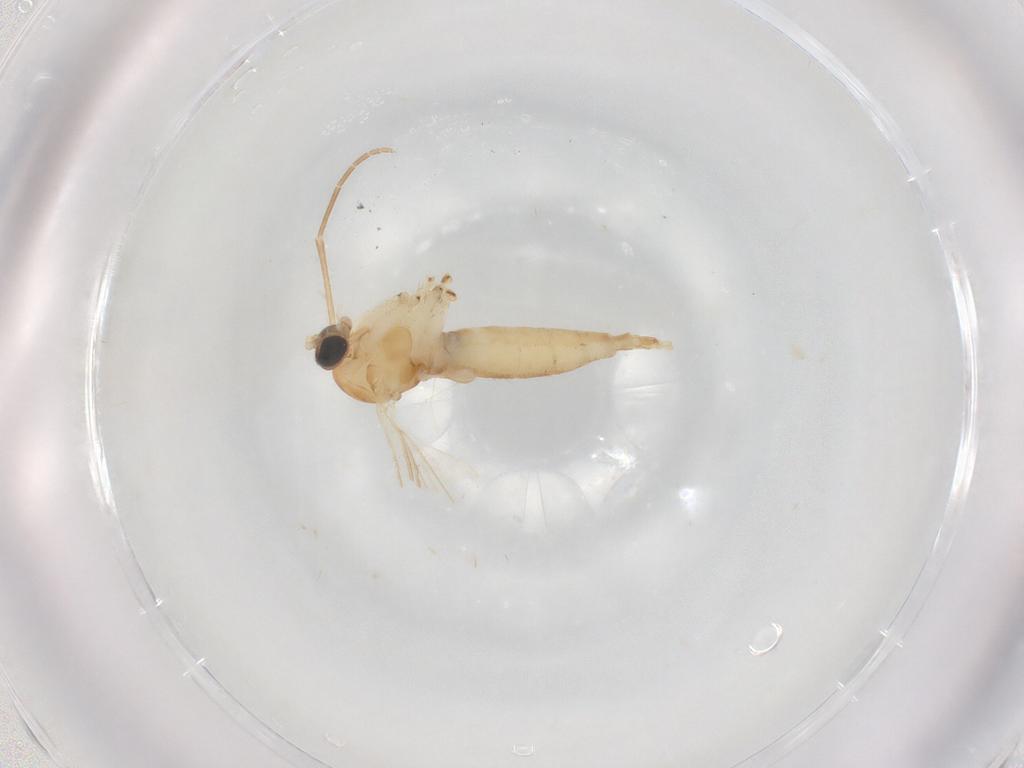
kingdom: Animalia
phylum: Arthropoda
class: Insecta
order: Diptera
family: Sciaridae
